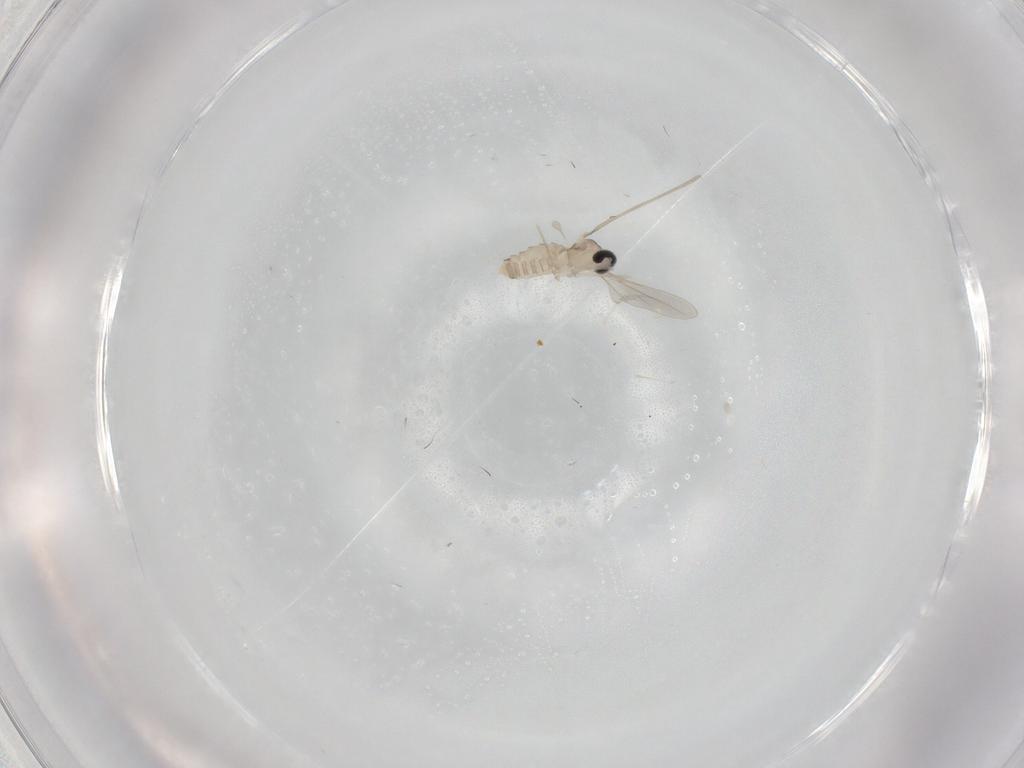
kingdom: Animalia
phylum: Arthropoda
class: Insecta
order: Diptera
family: Cecidomyiidae
